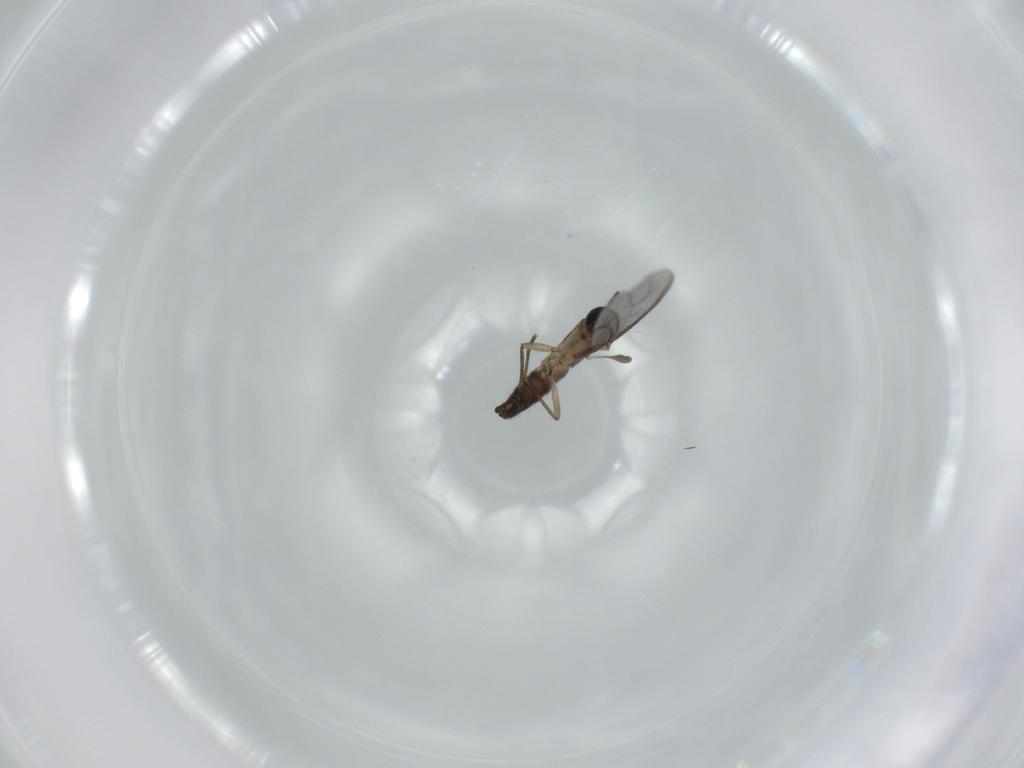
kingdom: Animalia
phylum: Arthropoda
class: Insecta
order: Diptera
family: Sciaridae
